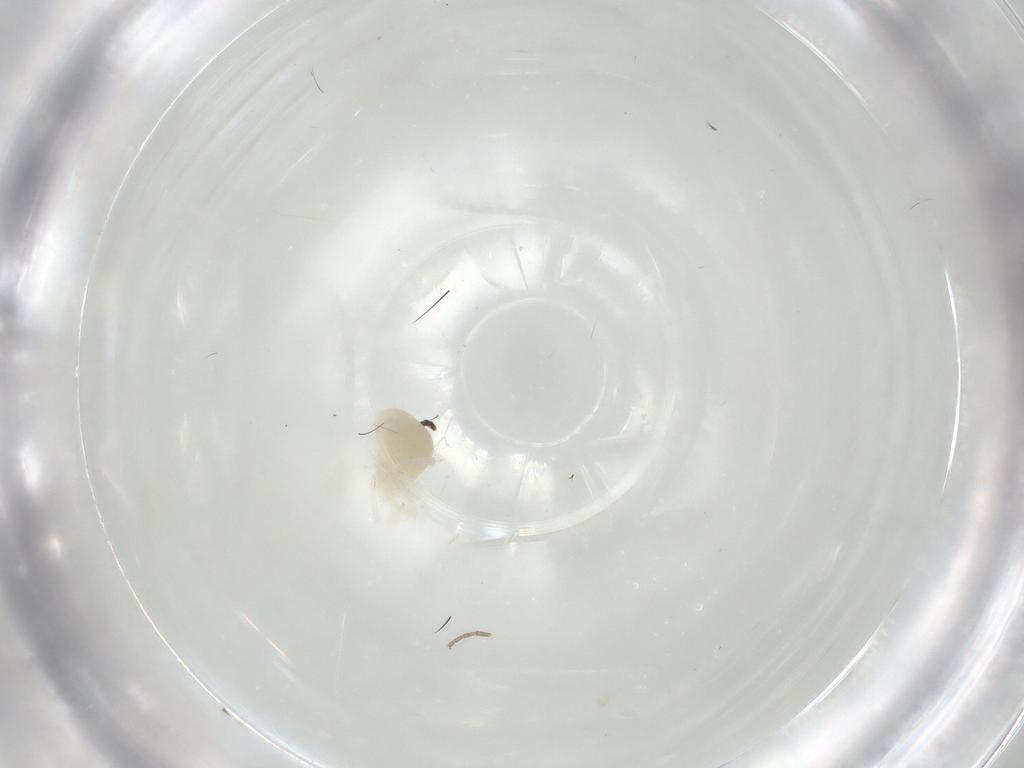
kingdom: Animalia
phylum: Arthropoda
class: Arachnida
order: Trombidiformes
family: Anystidae
